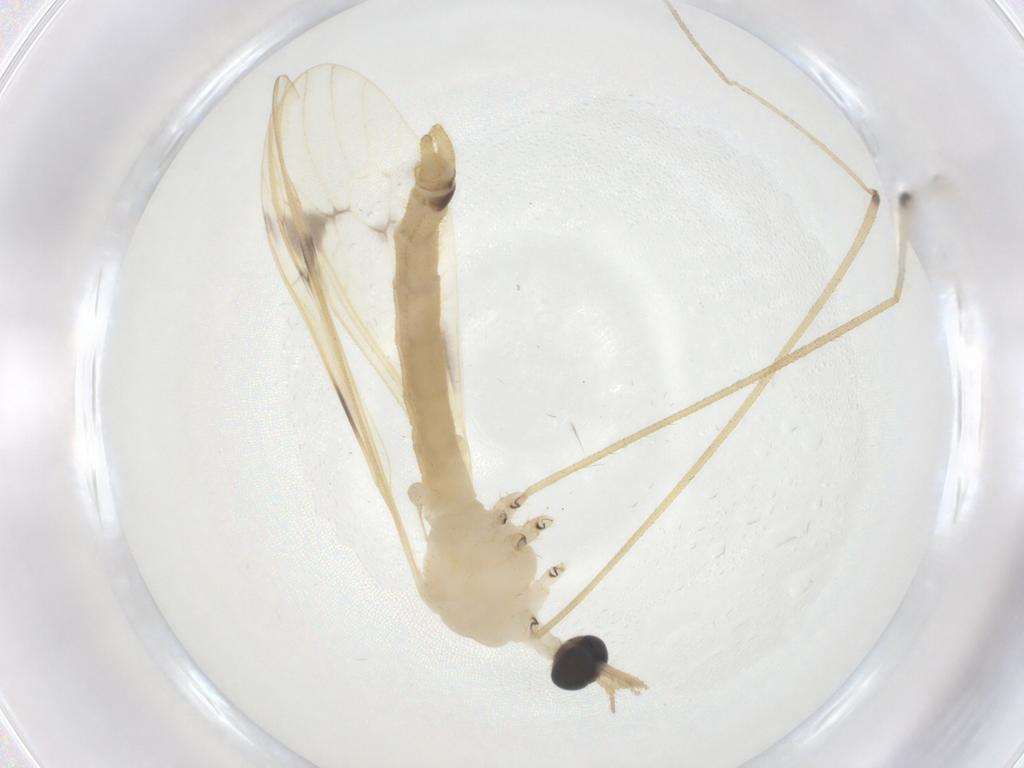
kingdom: Animalia
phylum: Arthropoda
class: Insecta
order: Diptera
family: Limoniidae
